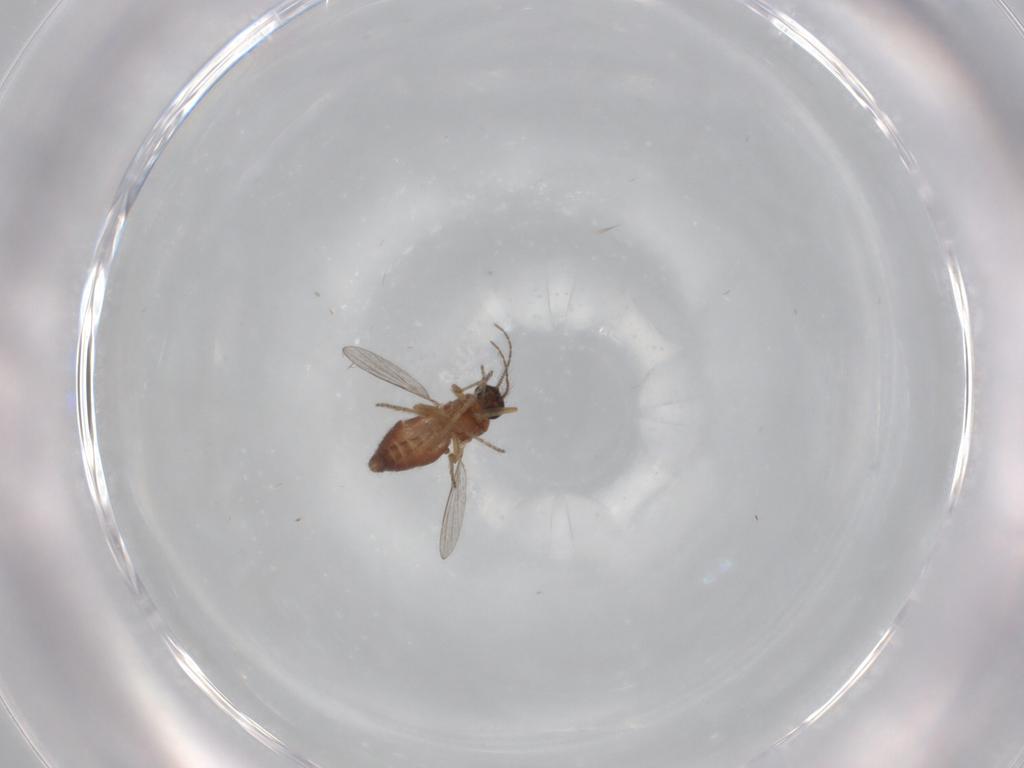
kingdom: Animalia
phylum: Arthropoda
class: Insecta
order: Diptera
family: Ceratopogonidae
